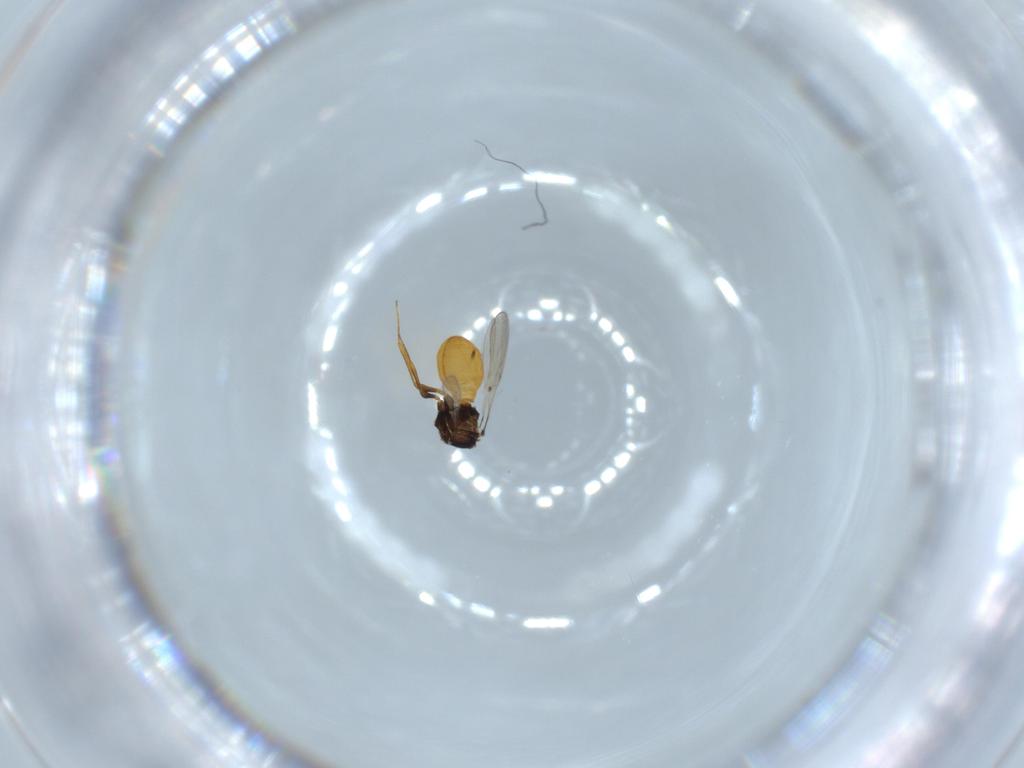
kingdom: Animalia
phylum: Arthropoda
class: Insecta
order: Hymenoptera
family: Scelionidae
